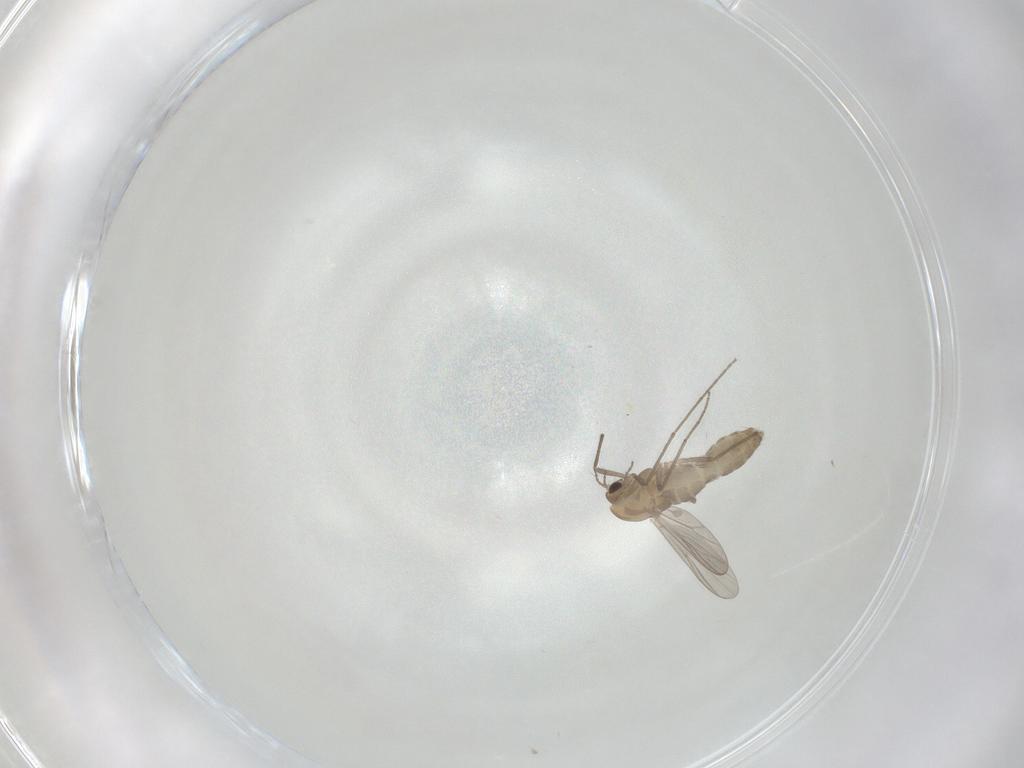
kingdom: Animalia
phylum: Arthropoda
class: Insecta
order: Diptera
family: Chironomidae
